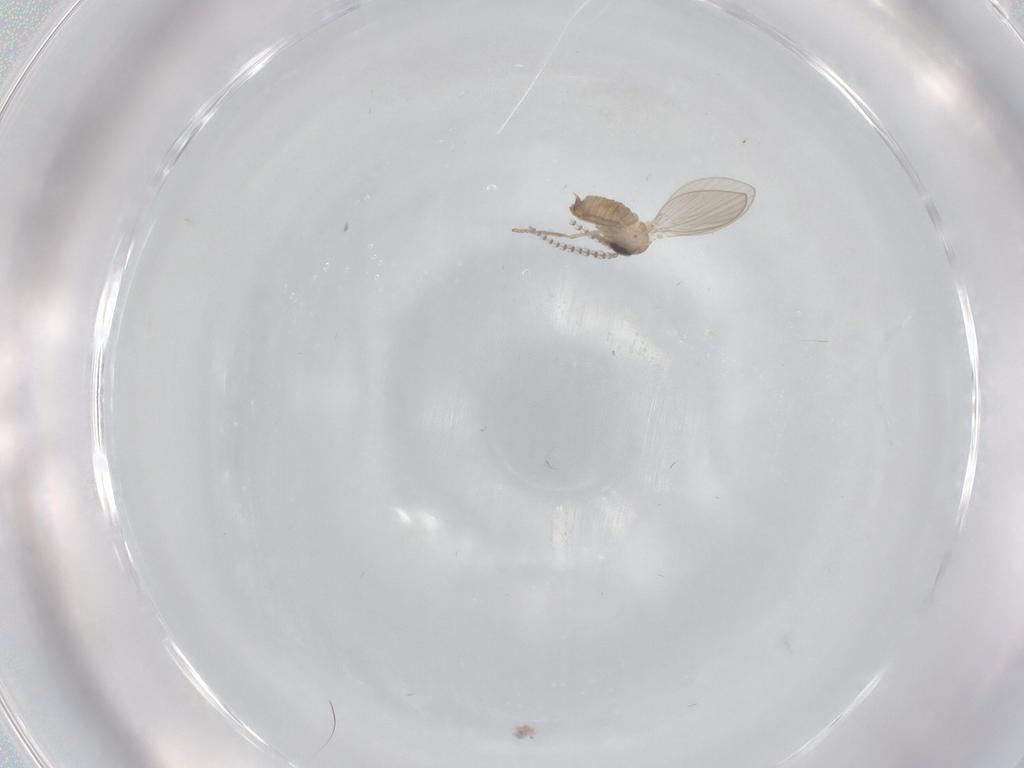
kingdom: Animalia
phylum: Arthropoda
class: Insecta
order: Diptera
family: Psychodidae
